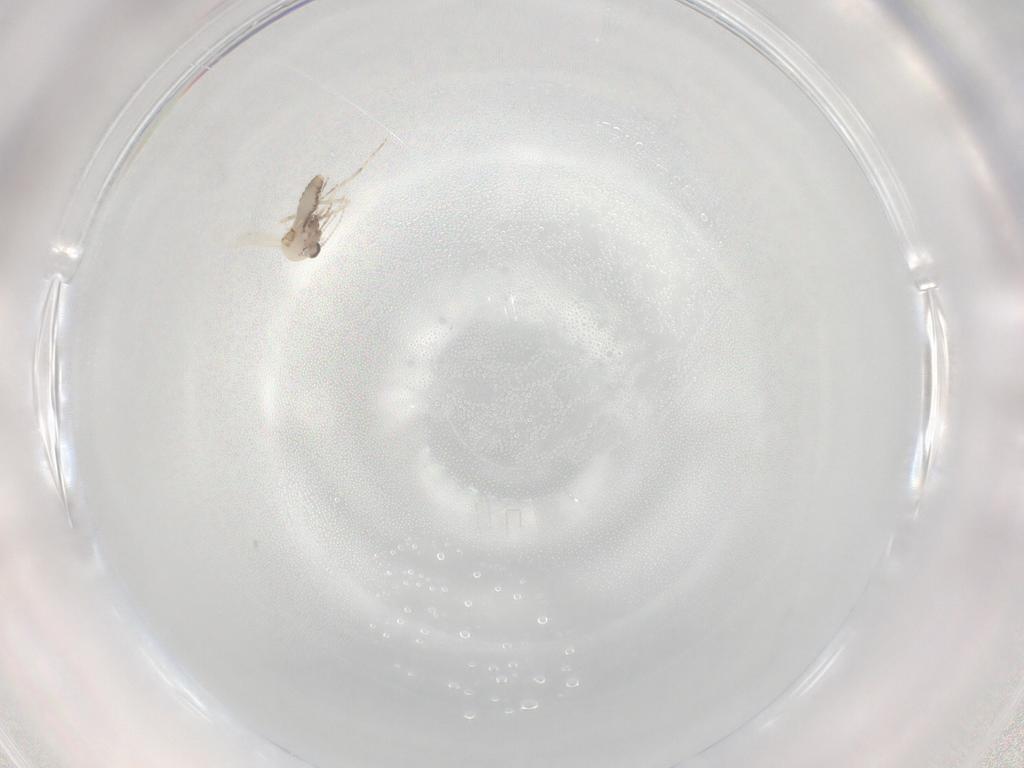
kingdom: Animalia
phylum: Arthropoda
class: Insecta
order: Diptera
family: Ceratopogonidae
